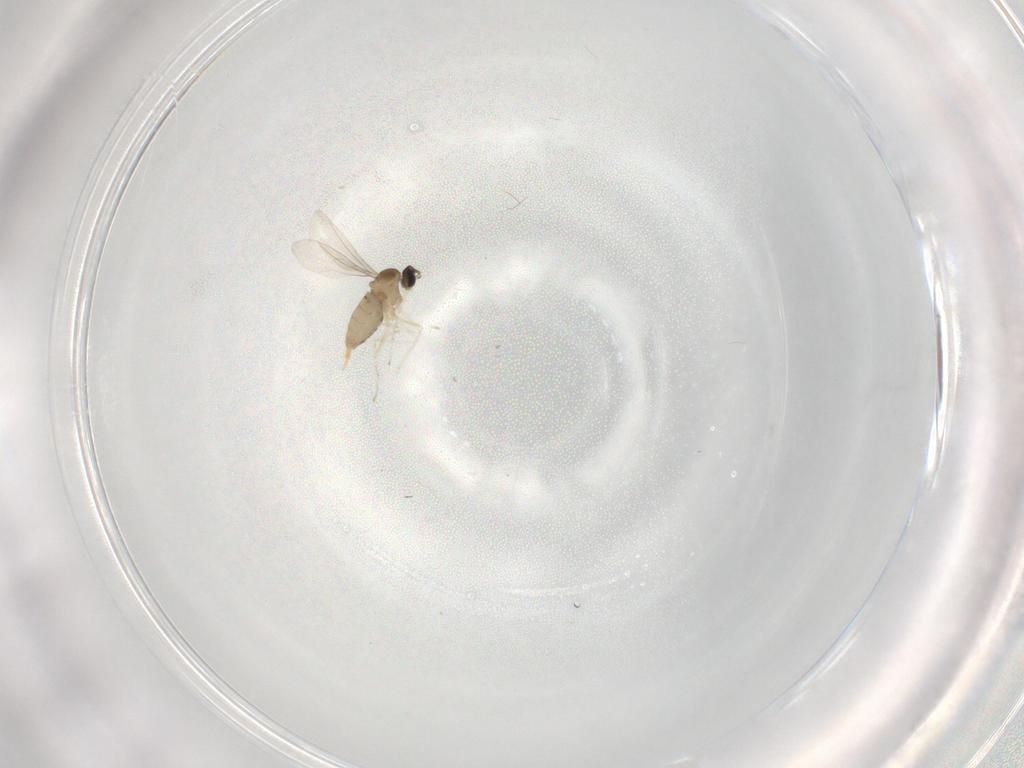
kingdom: Animalia
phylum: Arthropoda
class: Insecta
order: Diptera
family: Cecidomyiidae
